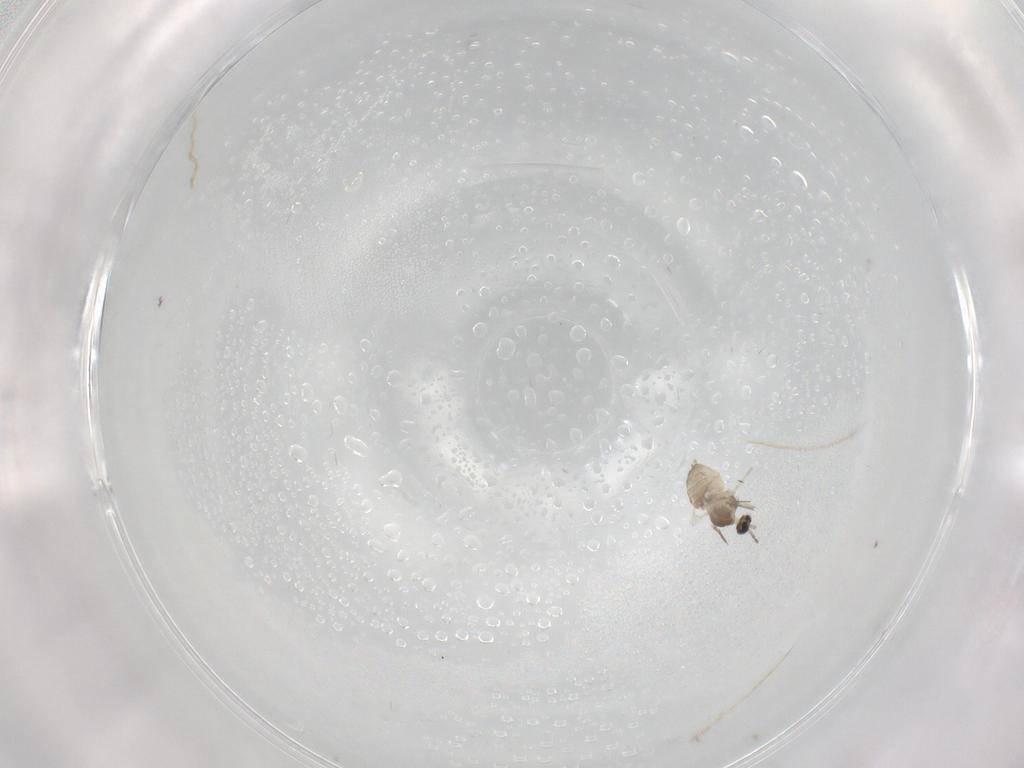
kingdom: Animalia
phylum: Arthropoda
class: Insecta
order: Diptera
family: Cecidomyiidae
